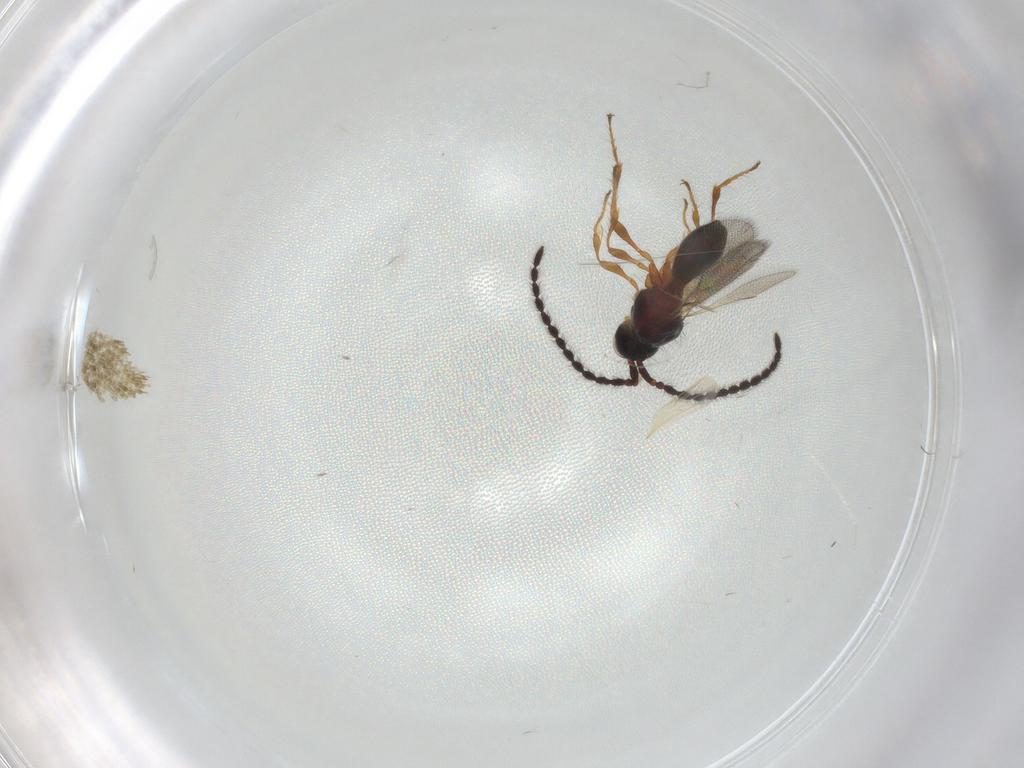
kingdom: Animalia
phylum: Arthropoda
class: Insecta
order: Hymenoptera
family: Diapriidae
